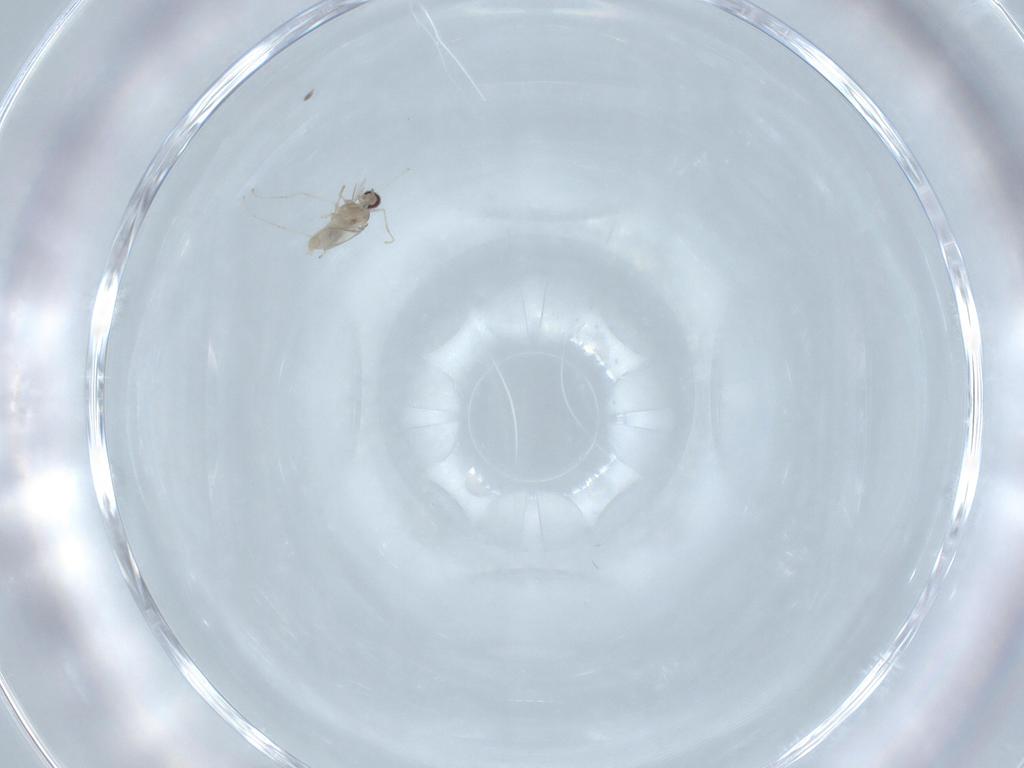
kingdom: Animalia
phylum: Arthropoda
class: Insecta
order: Diptera
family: Cecidomyiidae
